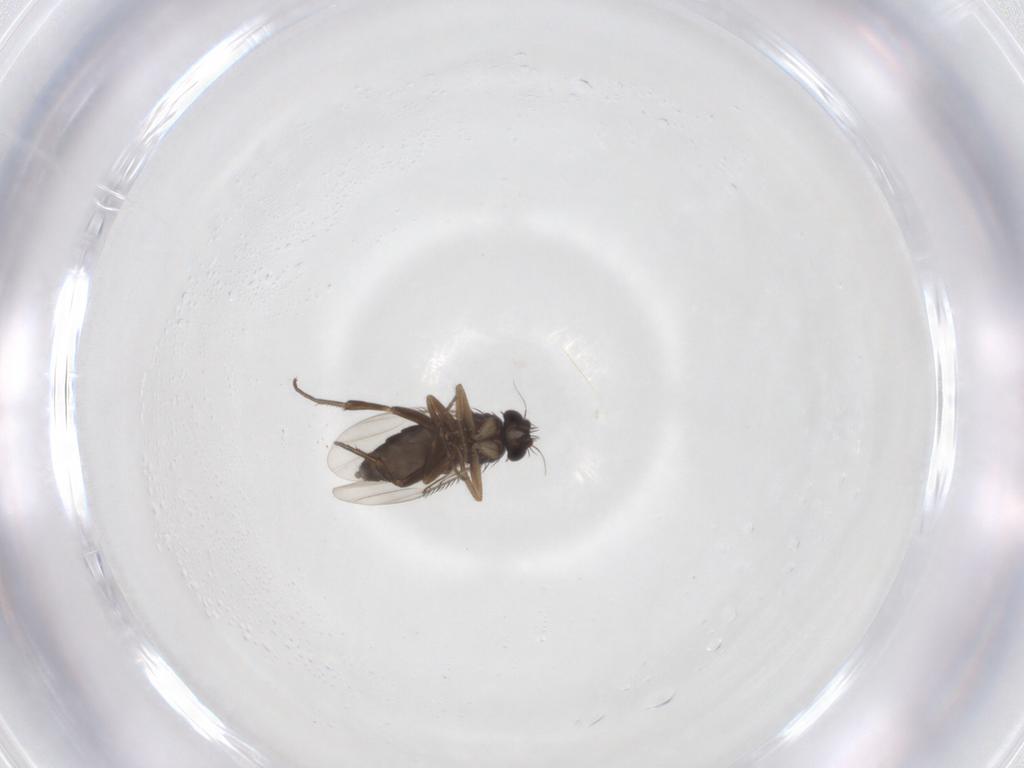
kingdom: Animalia
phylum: Arthropoda
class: Insecta
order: Diptera
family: Phoridae
